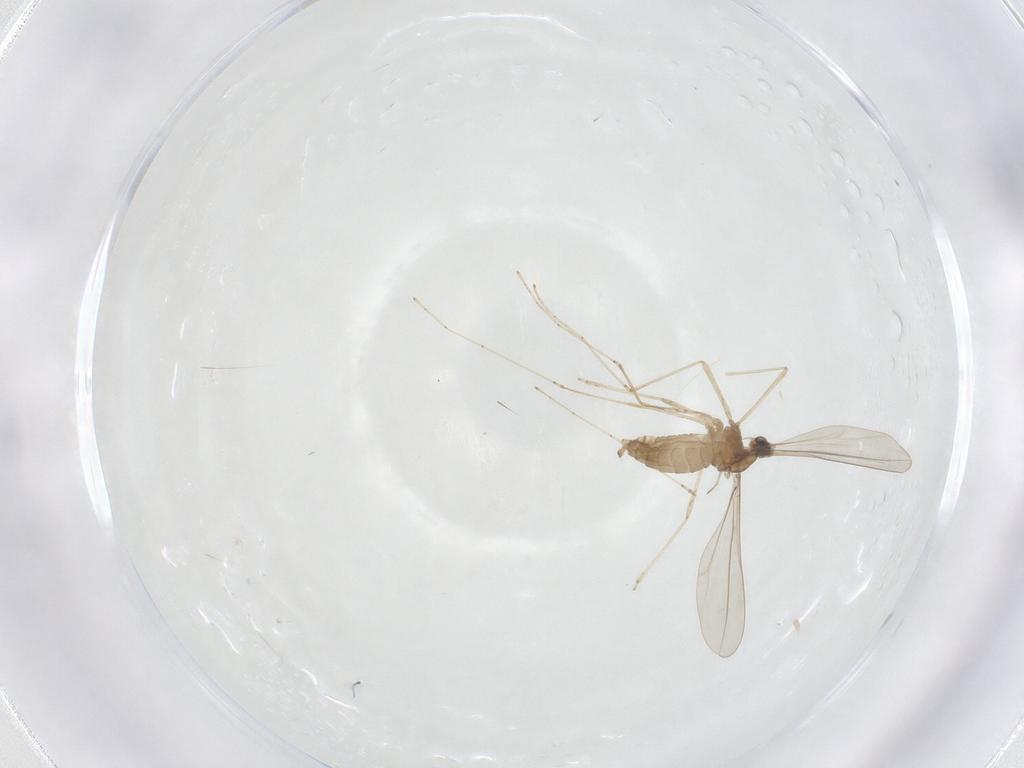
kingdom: Animalia
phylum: Arthropoda
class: Insecta
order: Diptera
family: Cecidomyiidae
